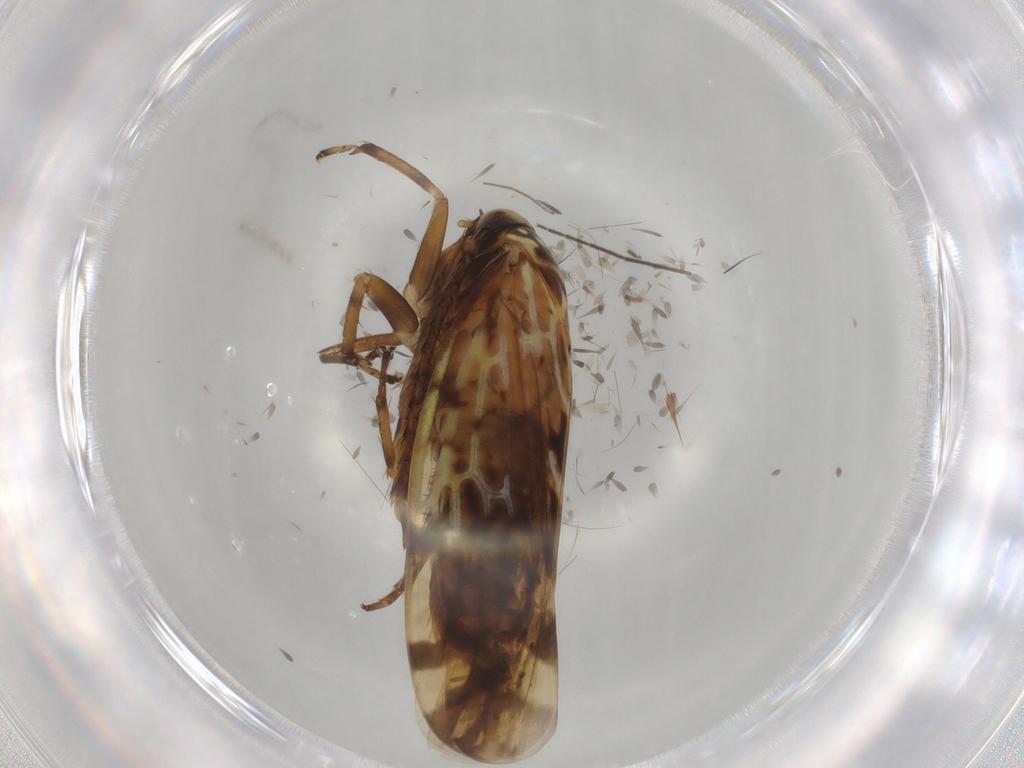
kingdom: Animalia
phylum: Arthropoda
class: Insecta
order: Hemiptera
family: Cicadellidae
